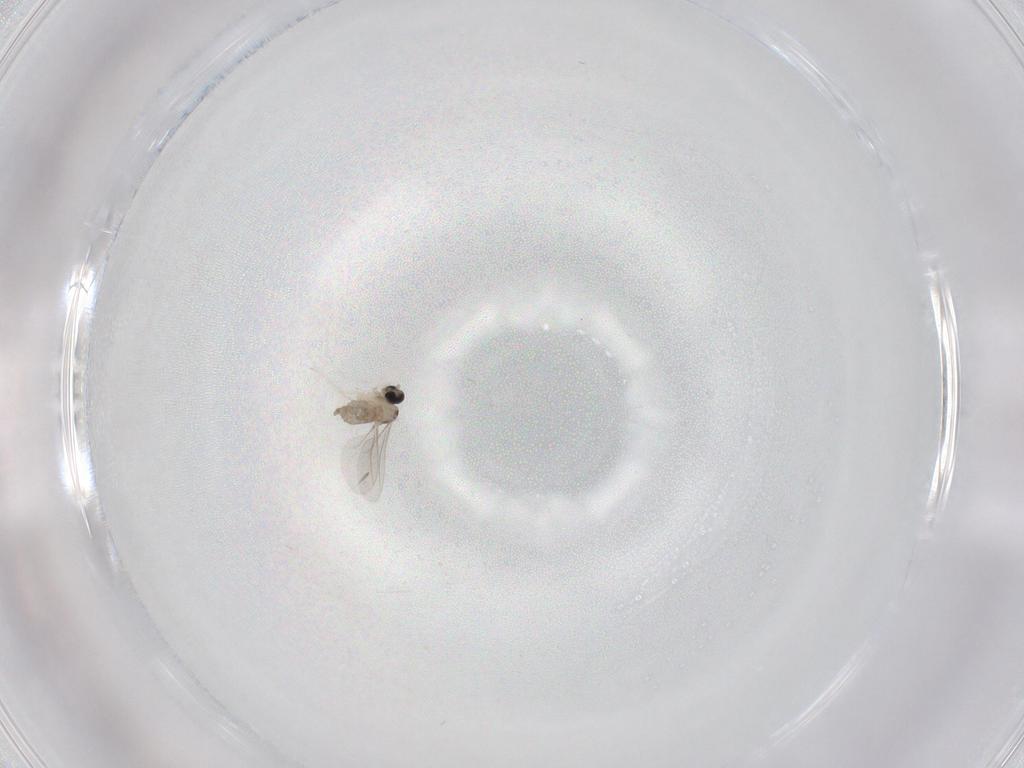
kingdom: Animalia
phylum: Arthropoda
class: Insecta
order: Diptera
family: Cecidomyiidae
